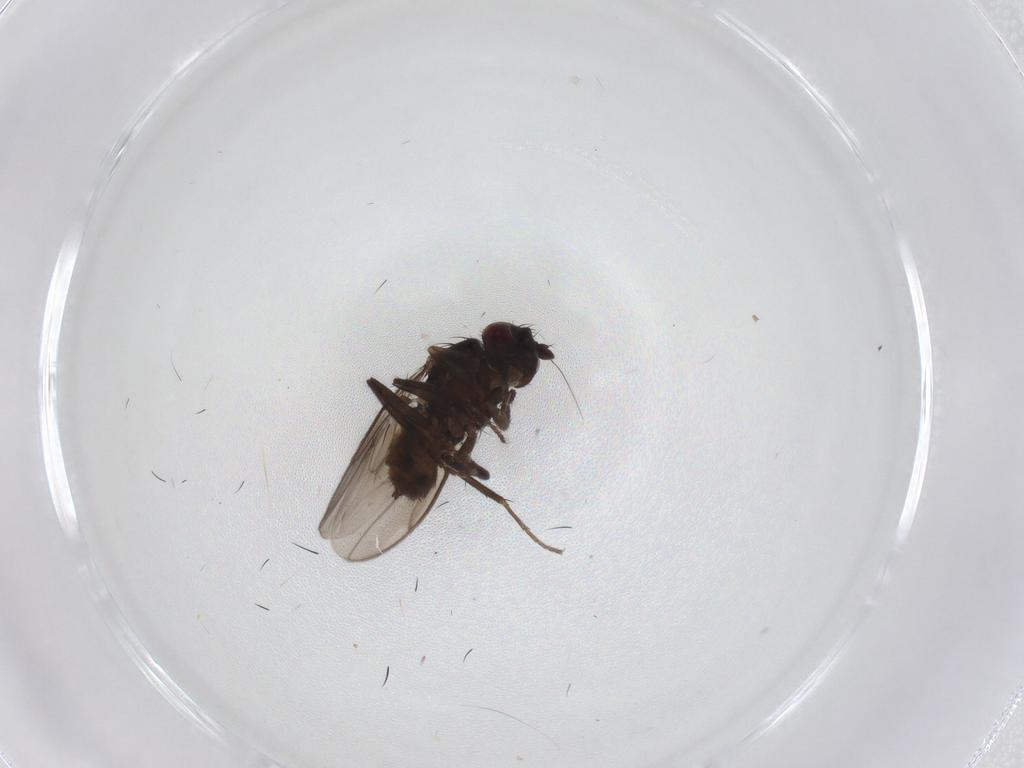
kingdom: Animalia
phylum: Arthropoda
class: Insecta
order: Diptera
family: Sphaeroceridae
